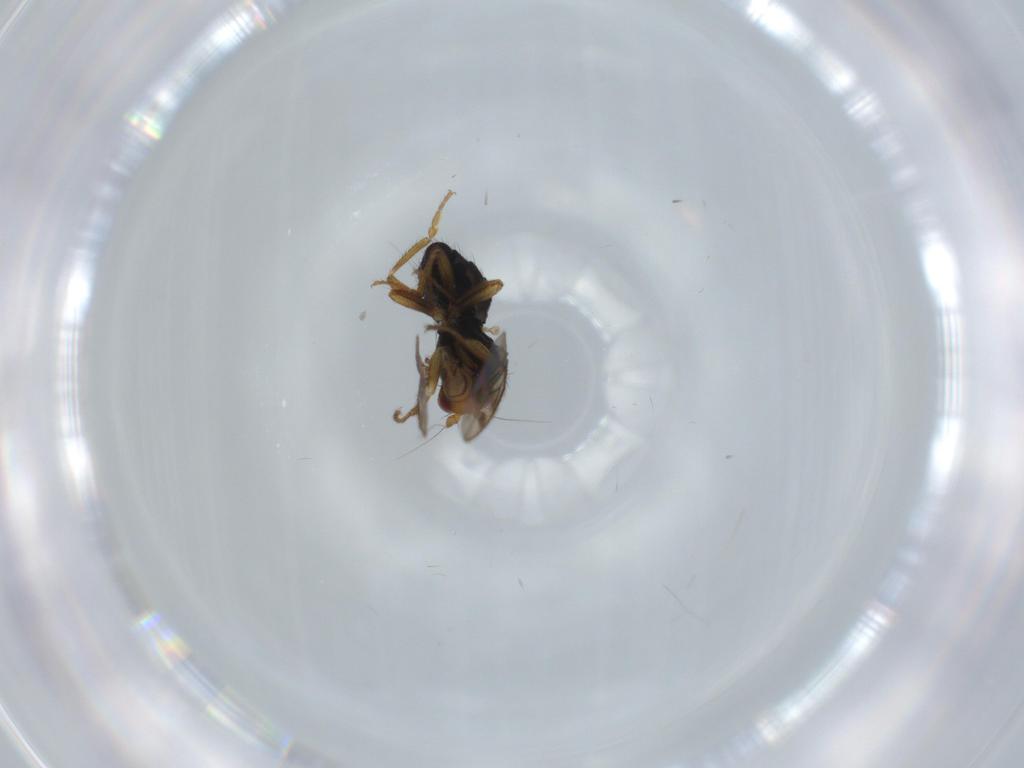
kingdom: Animalia
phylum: Arthropoda
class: Insecta
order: Diptera
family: Sphaeroceridae
